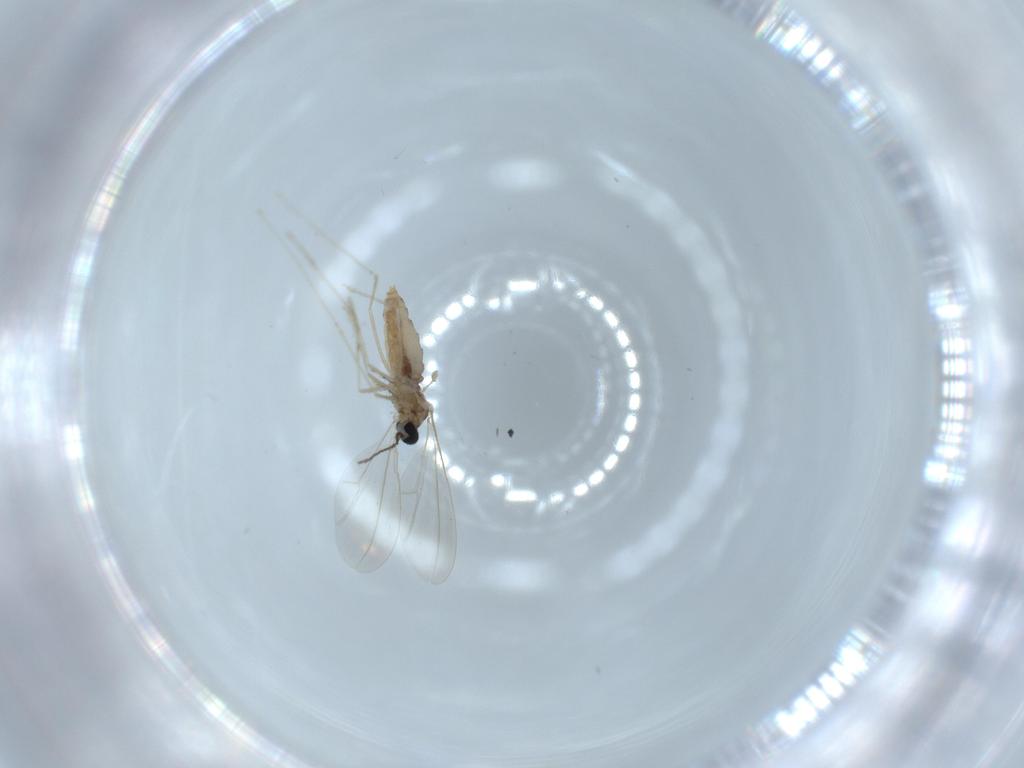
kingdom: Animalia
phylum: Arthropoda
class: Insecta
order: Diptera
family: Cecidomyiidae
